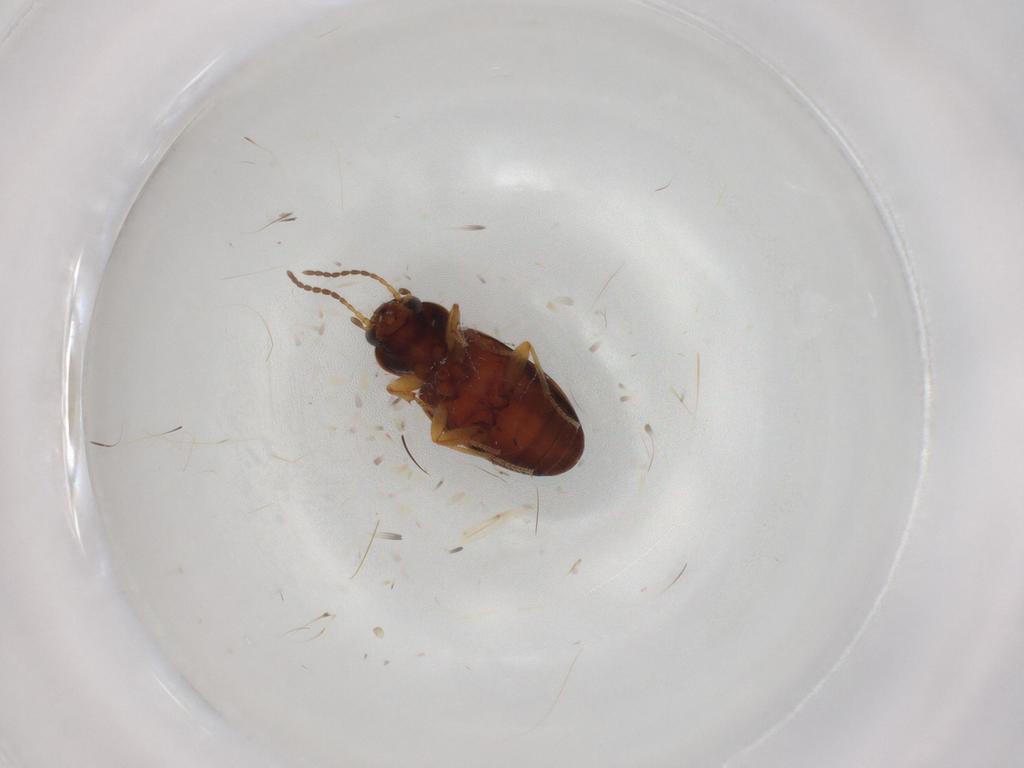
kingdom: Animalia
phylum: Arthropoda
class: Insecta
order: Coleoptera
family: Carabidae
